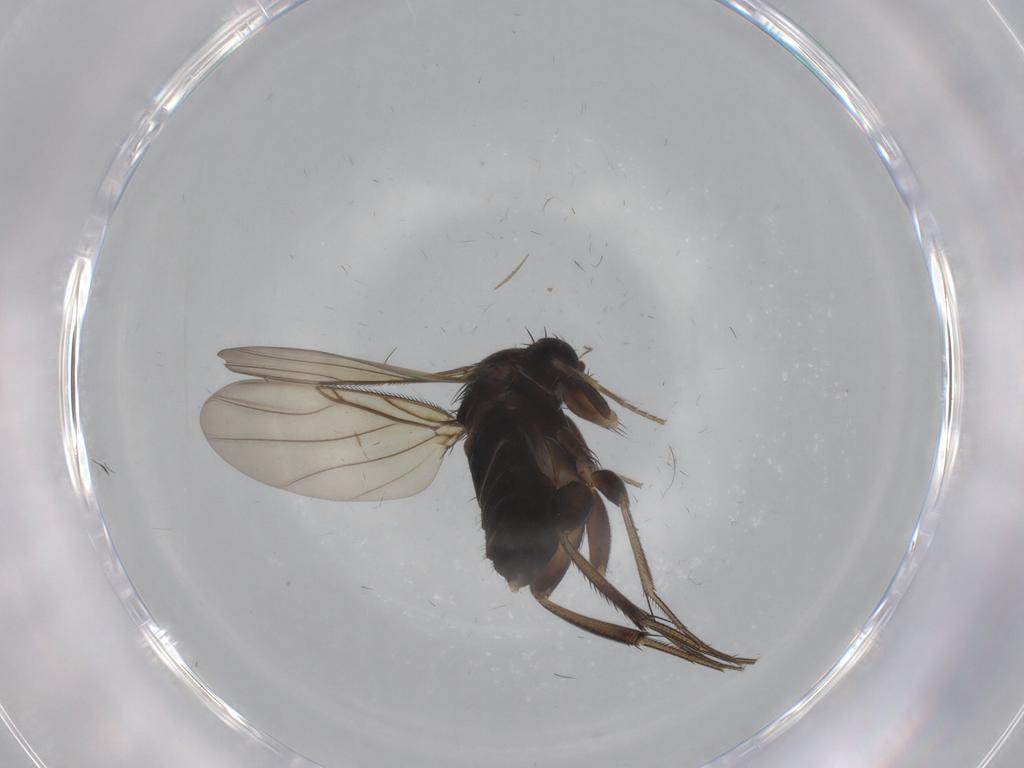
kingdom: Animalia
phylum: Arthropoda
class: Insecta
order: Diptera
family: Phoridae
